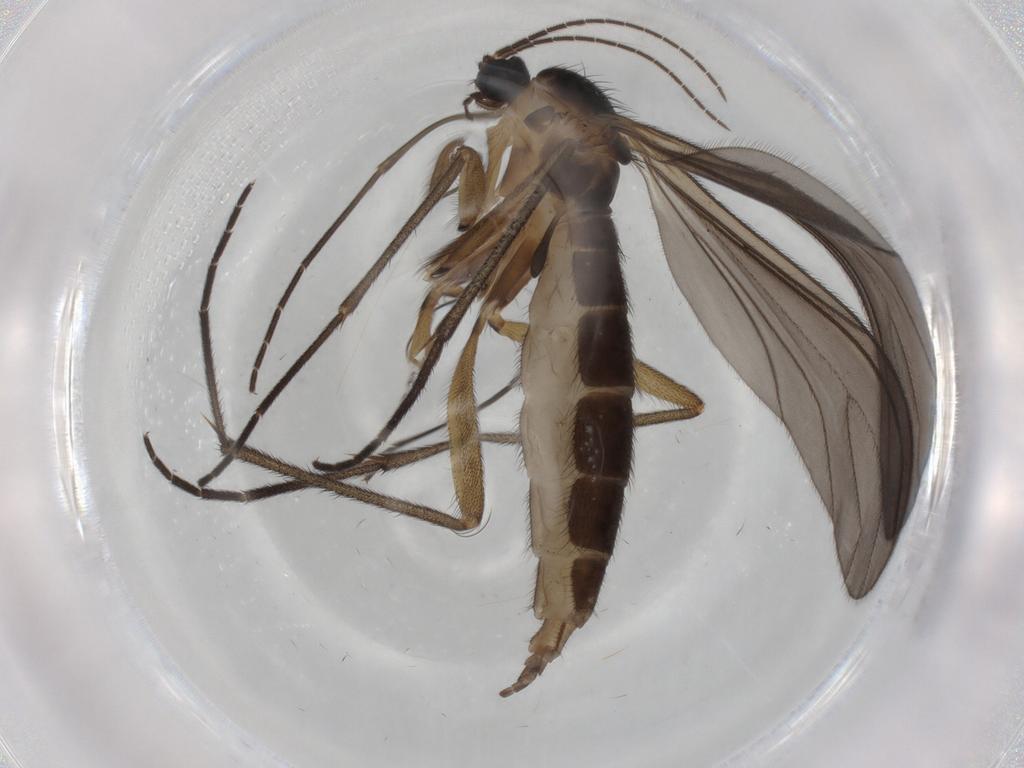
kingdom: Animalia
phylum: Arthropoda
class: Insecta
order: Diptera
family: Sciaridae
